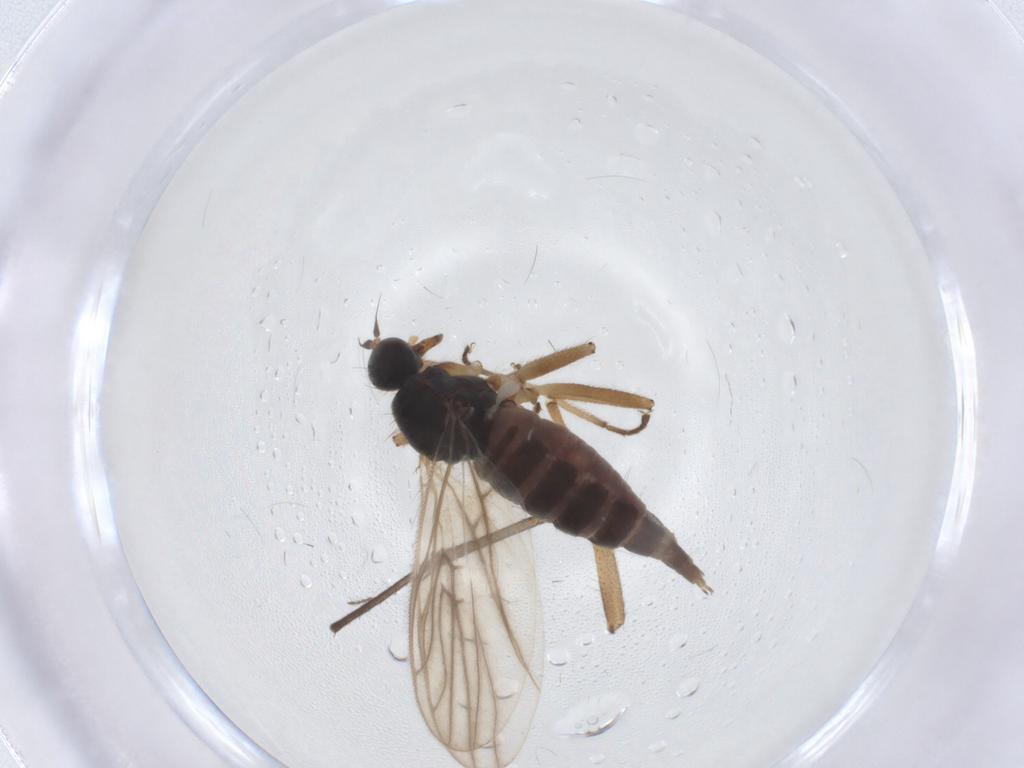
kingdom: Animalia
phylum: Arthropoda
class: Insecta
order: Diptera
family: Hybotidae
